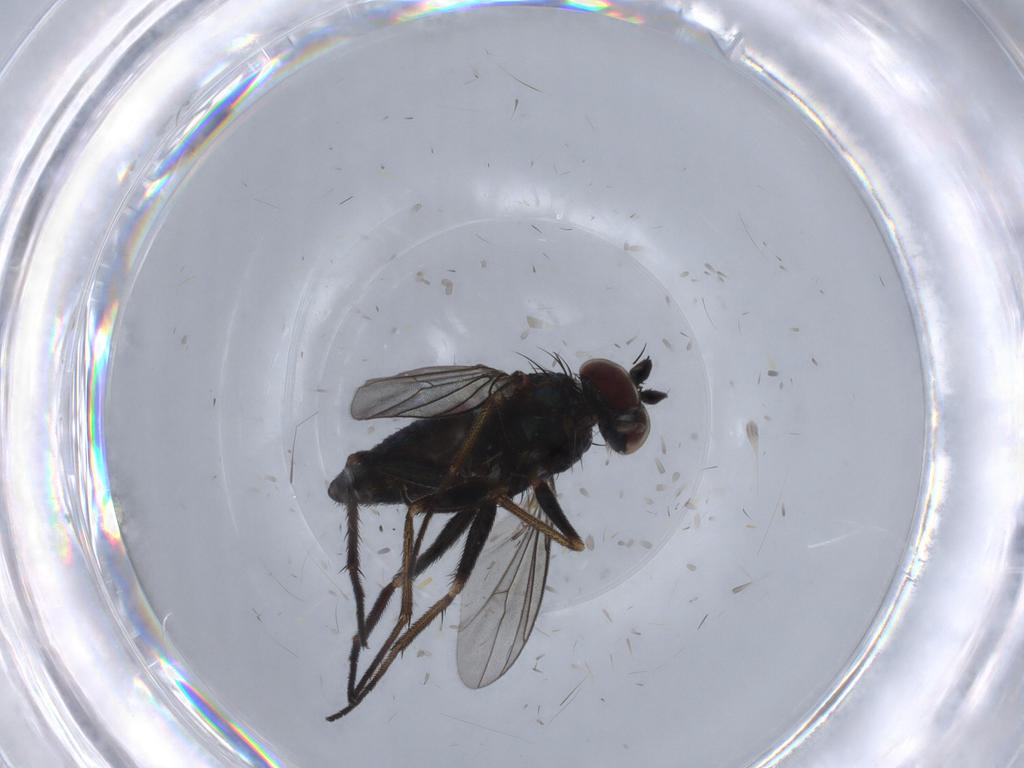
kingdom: Animalia
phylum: Arthropoda
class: Insecta
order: Diptera
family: Dolichopodidae
